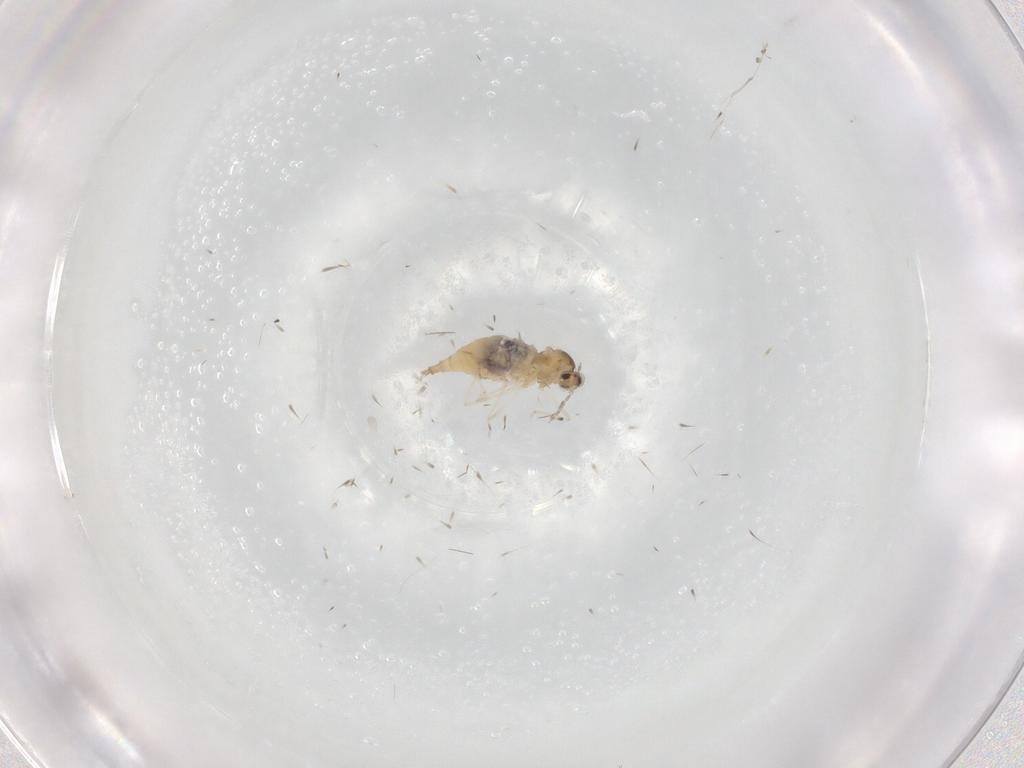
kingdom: Animalia
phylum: Arthropoda
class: Insecta
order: Diptera
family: Cecidomyiidae
